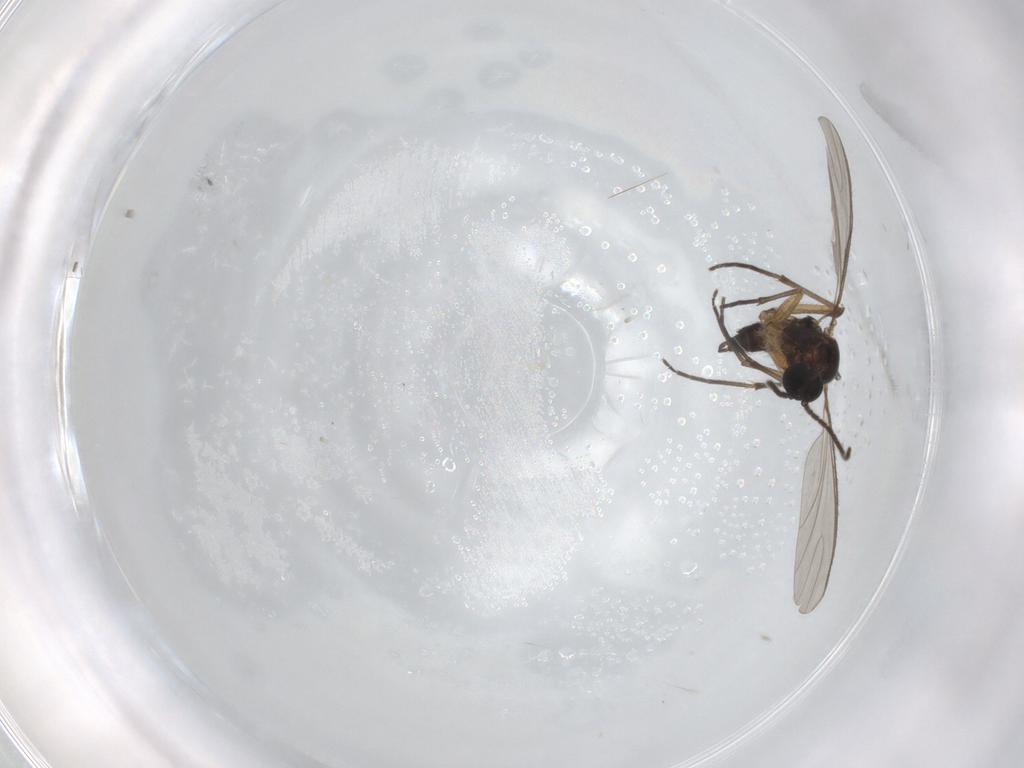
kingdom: Animalia
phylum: Arthropoda
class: Insecta
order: Diptera
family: Sciaridae
